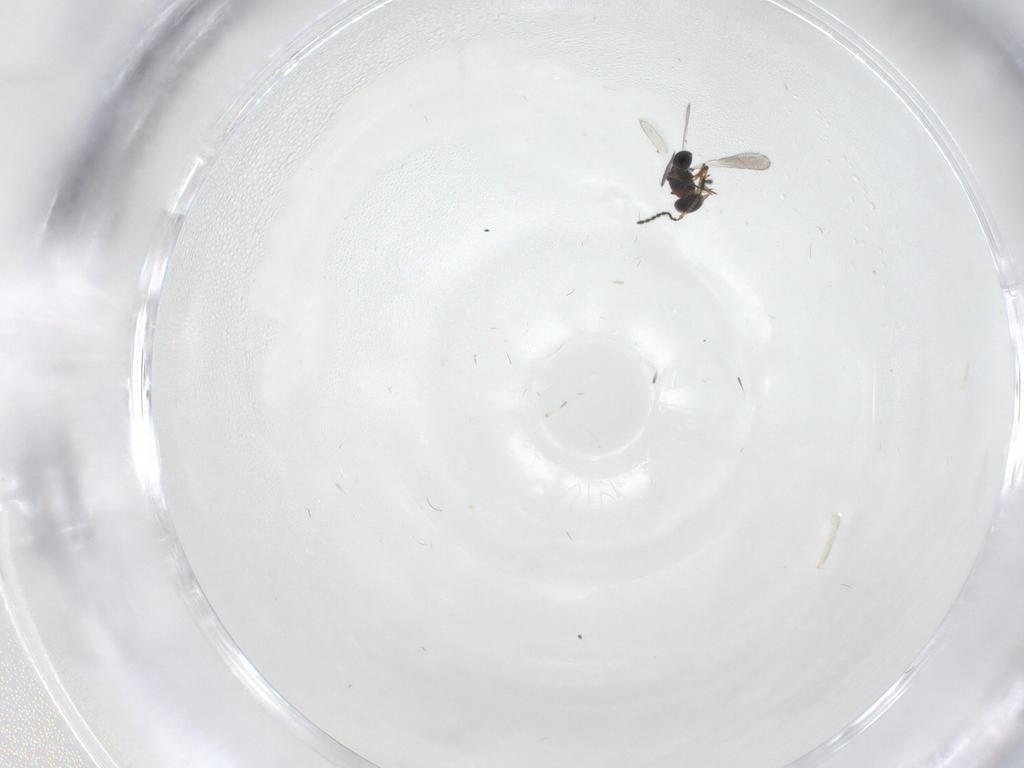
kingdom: Animalia
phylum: Arthropoda
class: Insecta
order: Hymenoptera
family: Platygastridae
